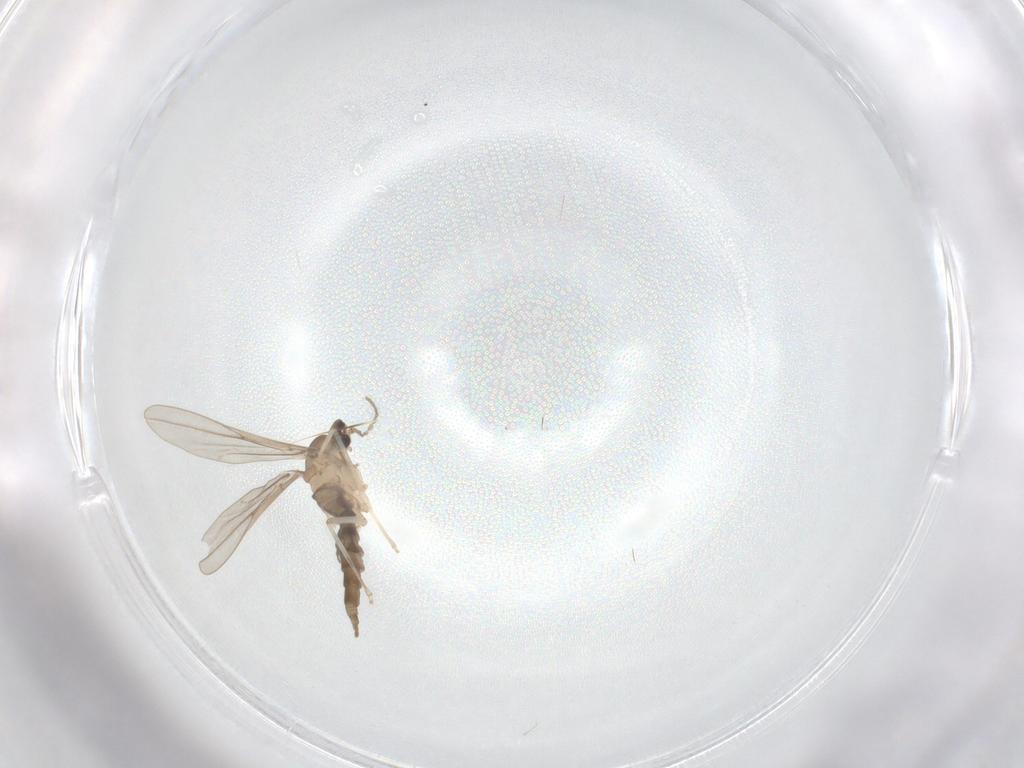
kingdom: Animalia
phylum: Arthropoda
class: Insecta
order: Diptera
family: Cecidomyiidae
